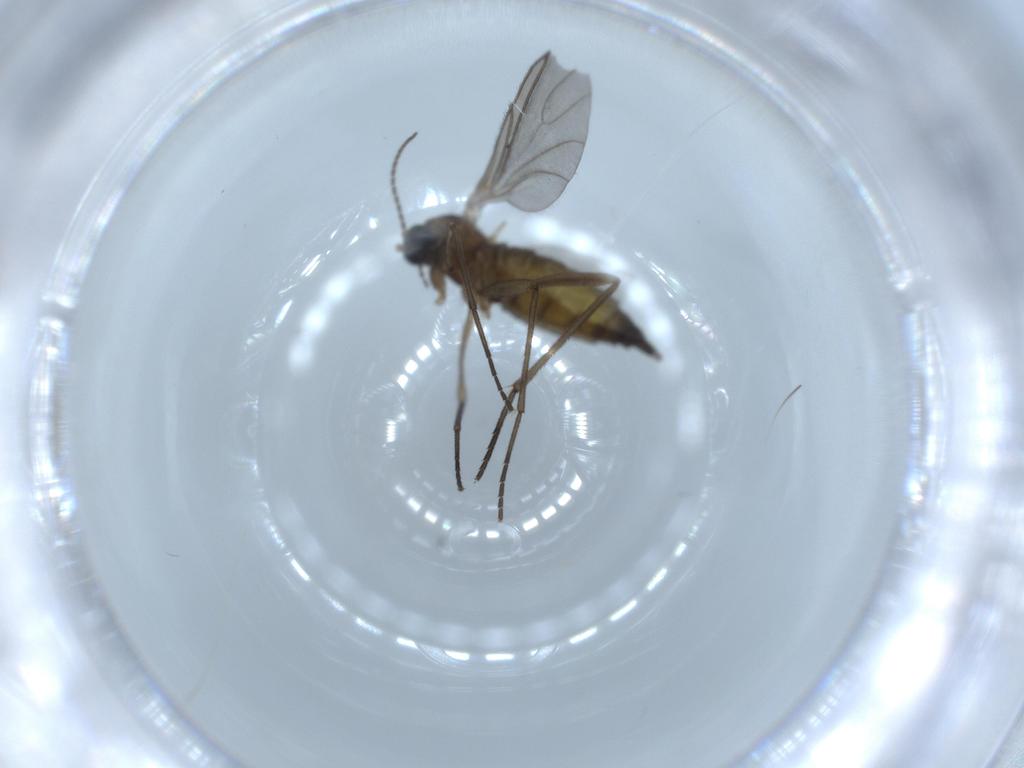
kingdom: Animalia
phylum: Arthropoda
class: Insecta
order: Diptera
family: Sciaridae
